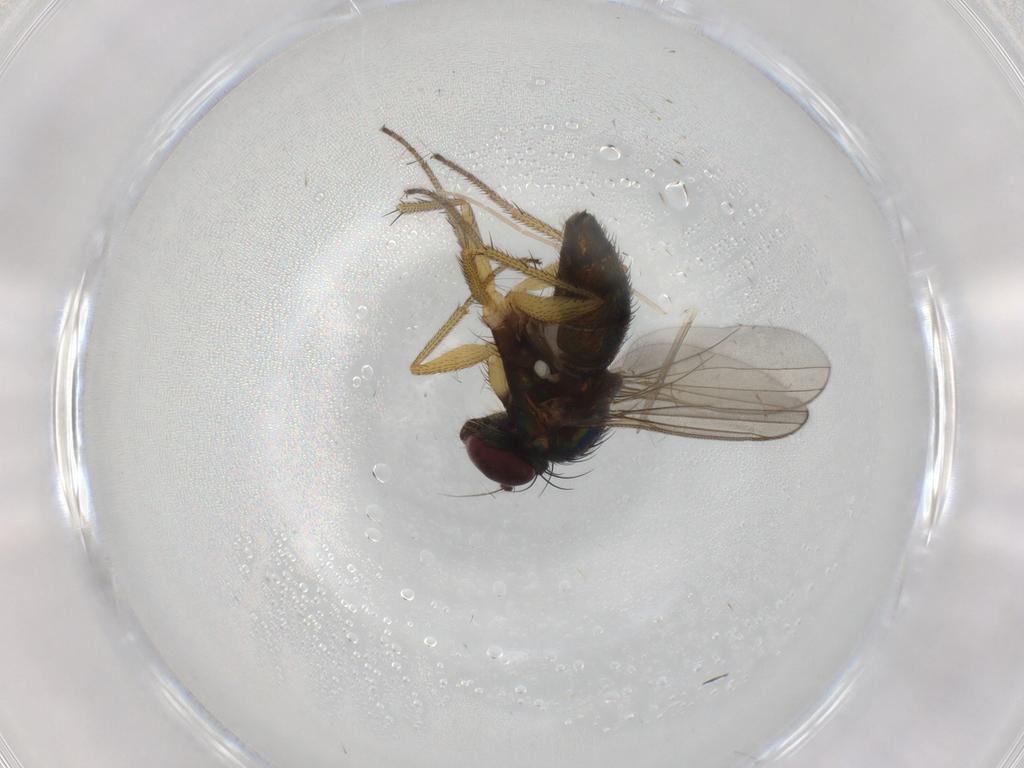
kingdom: Animalia
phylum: Arthropoda
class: Insecta
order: Diptera
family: Dolichopodidae
